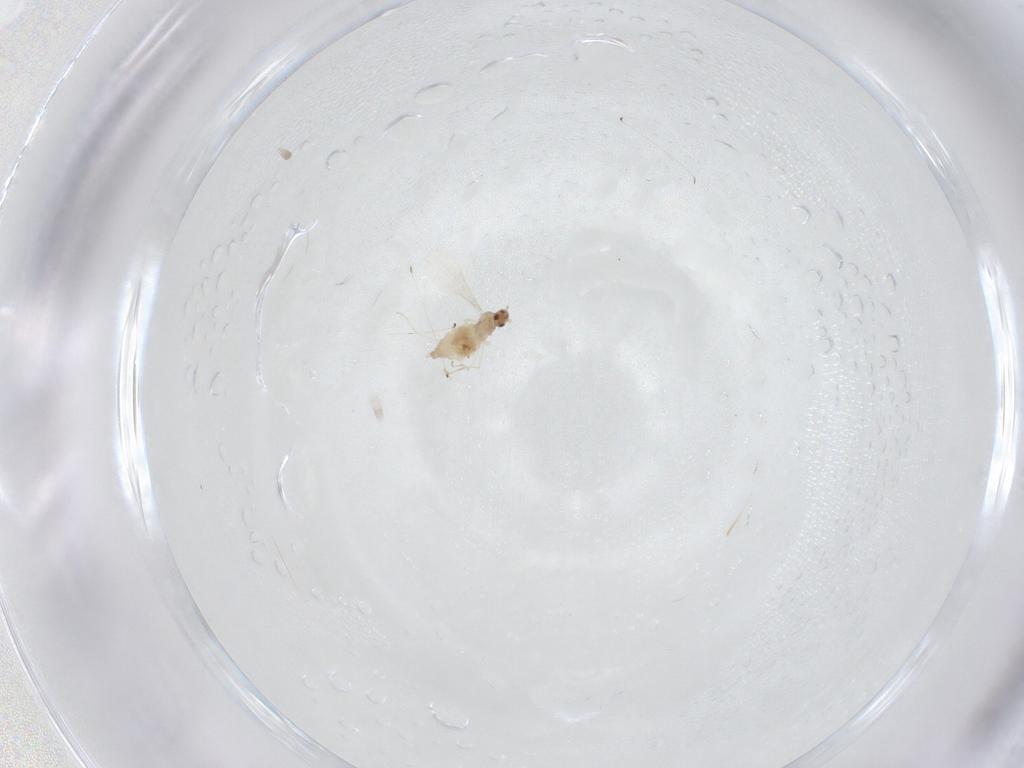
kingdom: Animalia
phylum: Arthropoda
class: Insecta
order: Diptera
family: Cecidomyiidae
